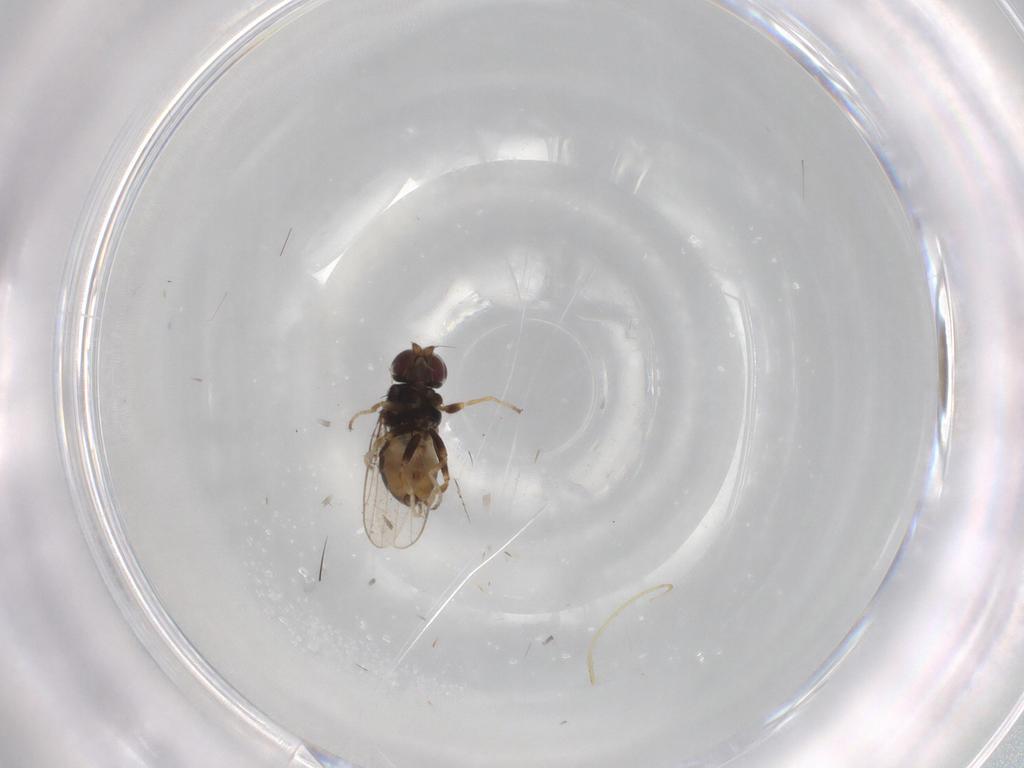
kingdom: Animalia
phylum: Arthropoda
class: Insecta
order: Diptera
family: Chloropidae
